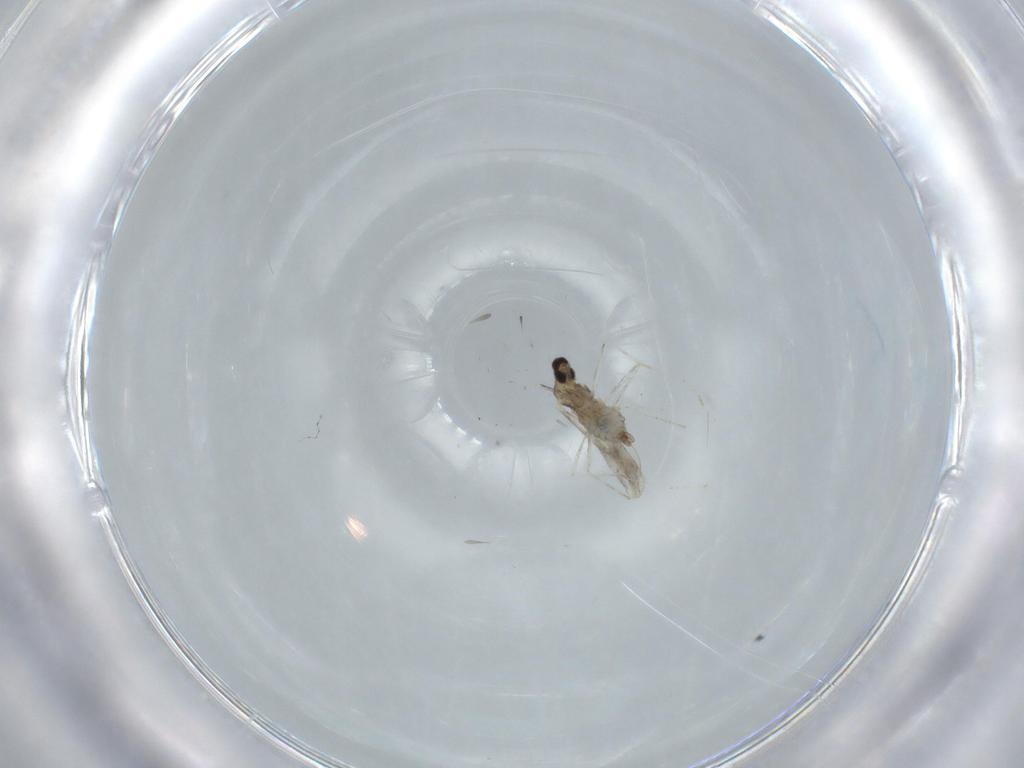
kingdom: Animalia
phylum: Arthropoda
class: Insecta
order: Diptera
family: Cecidomyiidae
